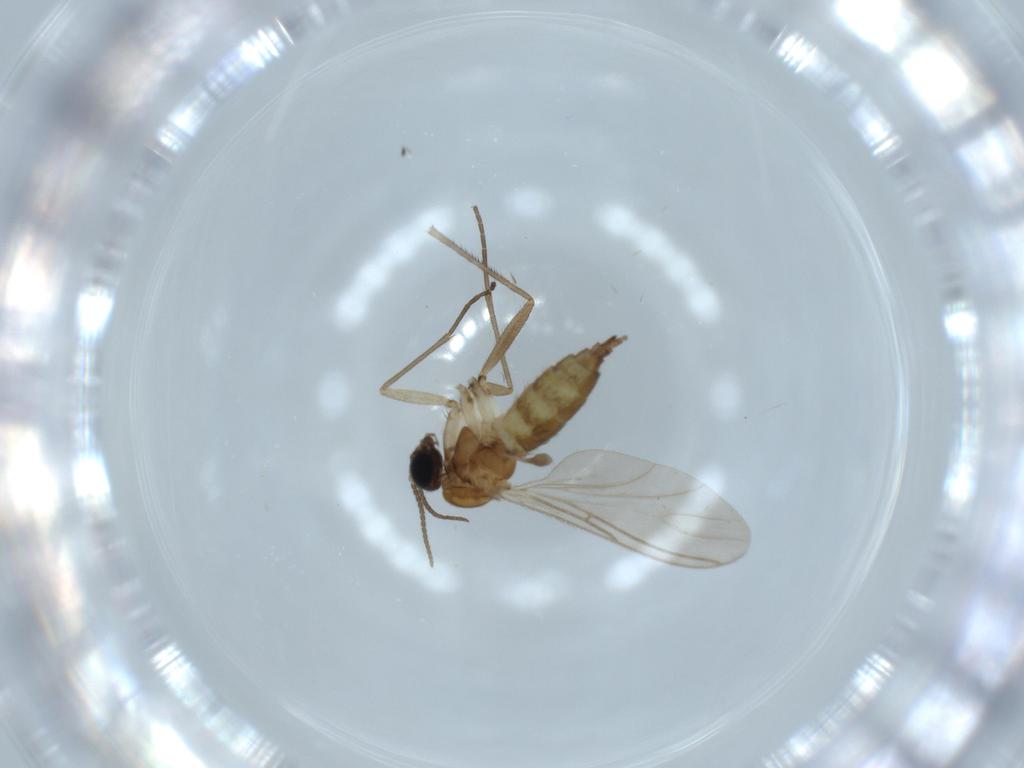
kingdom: Animalia
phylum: Arthropoda
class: Insecta
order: Diptera
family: Sciaridae
